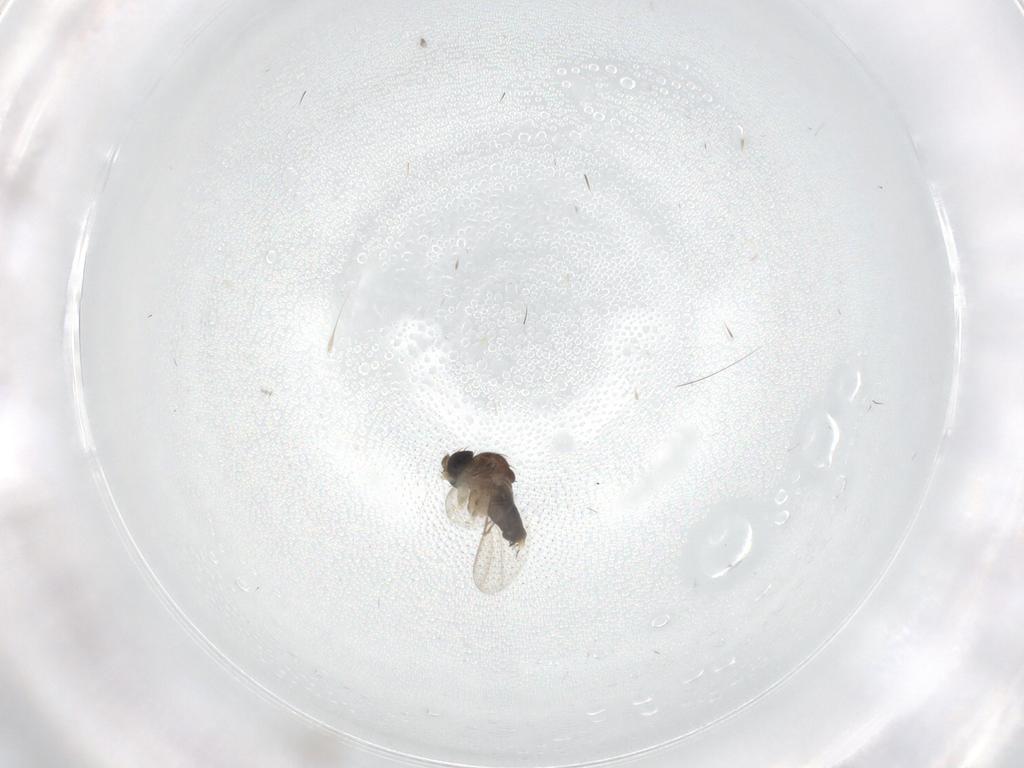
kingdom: Animalia
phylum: Arthropoda
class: Insecta
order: Diptera
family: Phoridae
